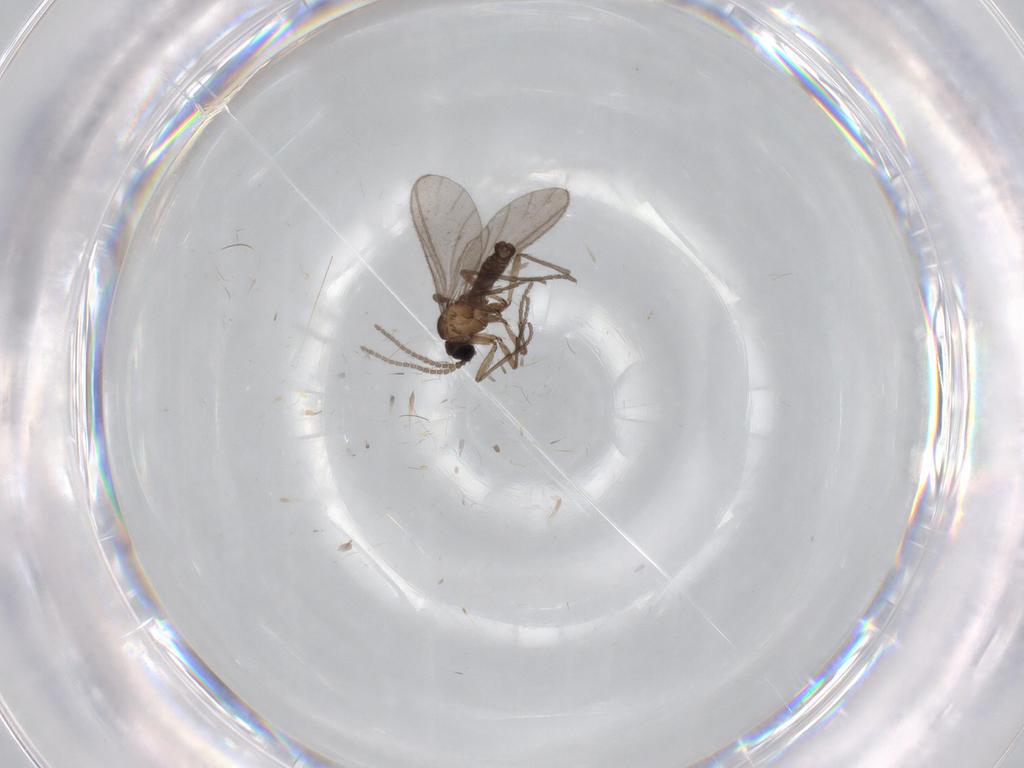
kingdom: Animalia
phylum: Arthropoda
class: Insecta
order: Diptera
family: Sciaridae
